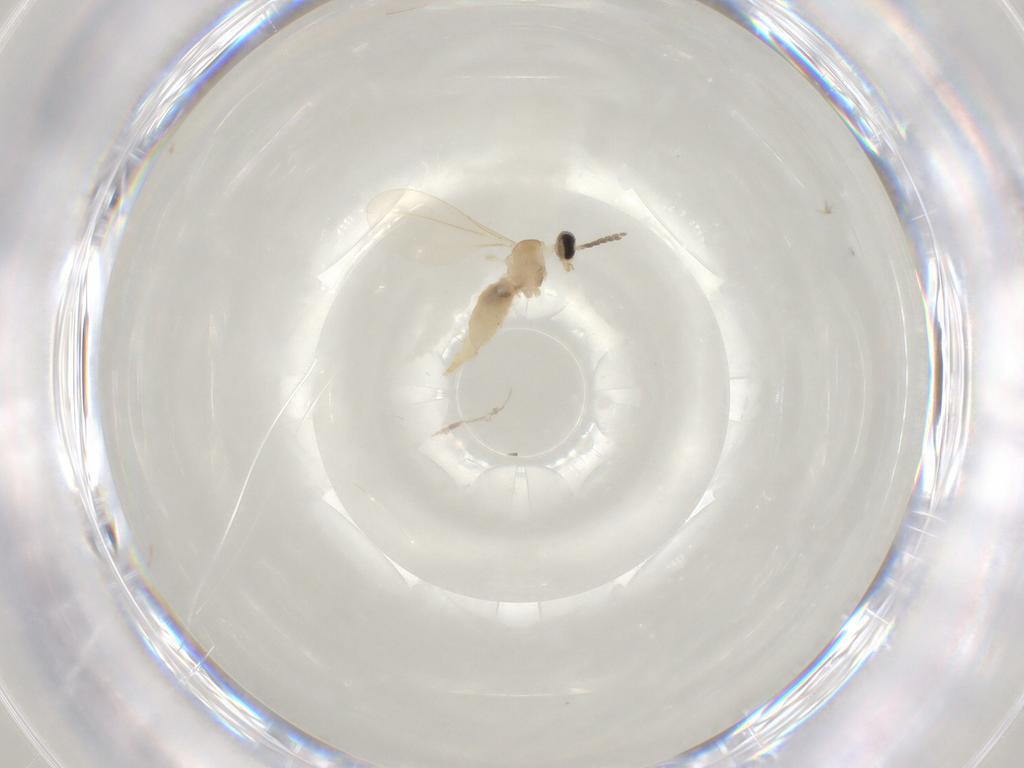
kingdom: Animalia
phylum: Arthropoda
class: Insecta
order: Diptera
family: Cecidomyiidae
